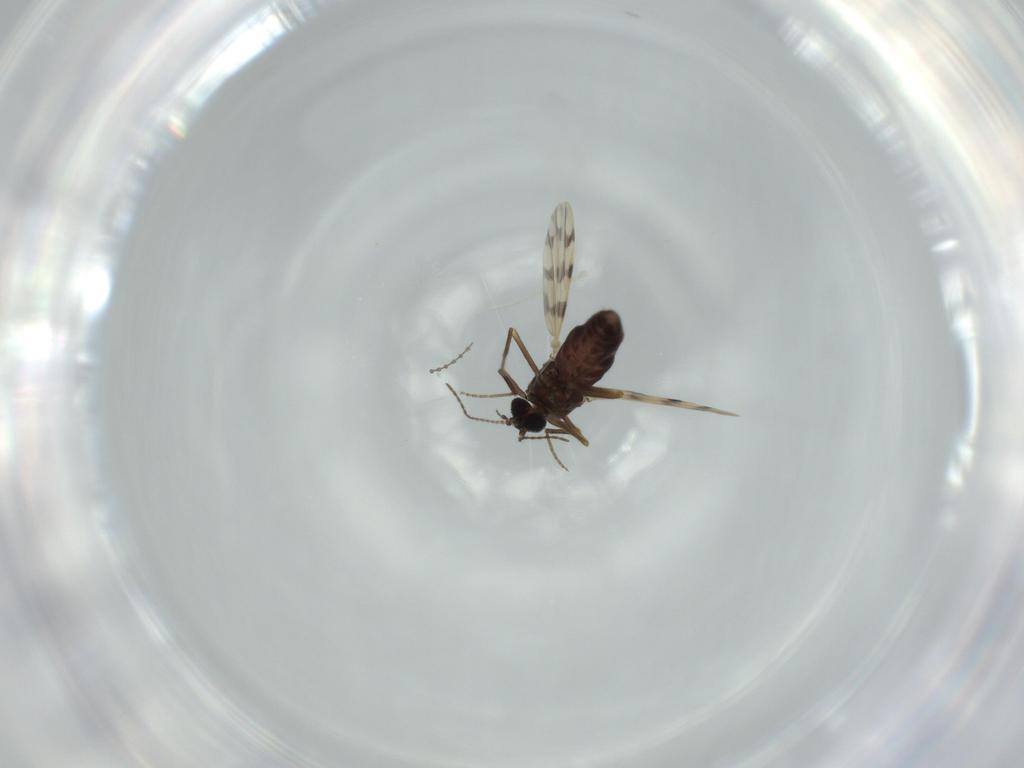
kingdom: Animalia
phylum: Arthropoda
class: Insecta
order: Diptera
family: Chironomidae
